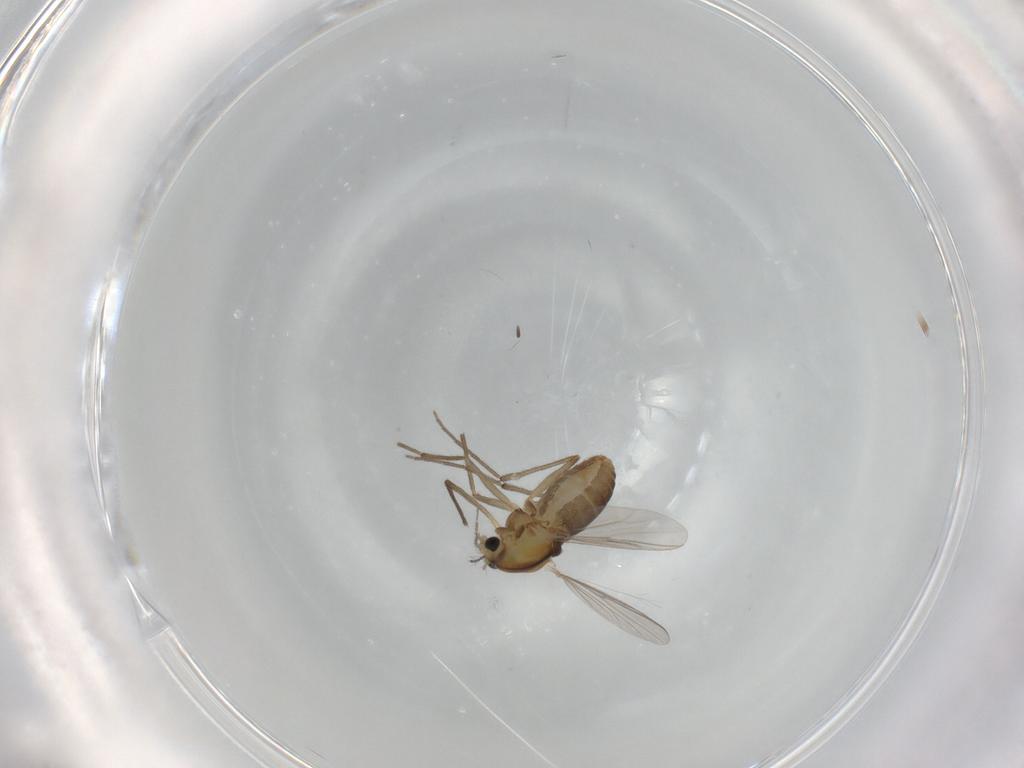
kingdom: Animalia
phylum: Arthropoda
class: Insecta
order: Diptera
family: Chironomidae
